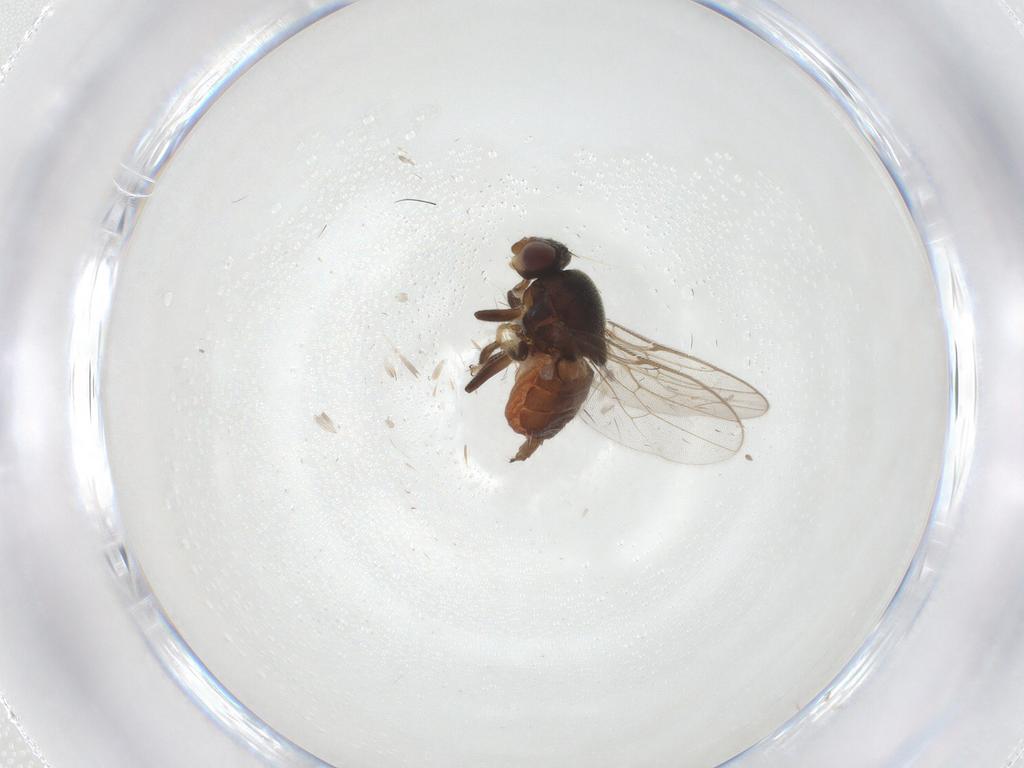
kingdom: Animalia
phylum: Arthropoda
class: Insecta
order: Diptera
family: Chloropidae
